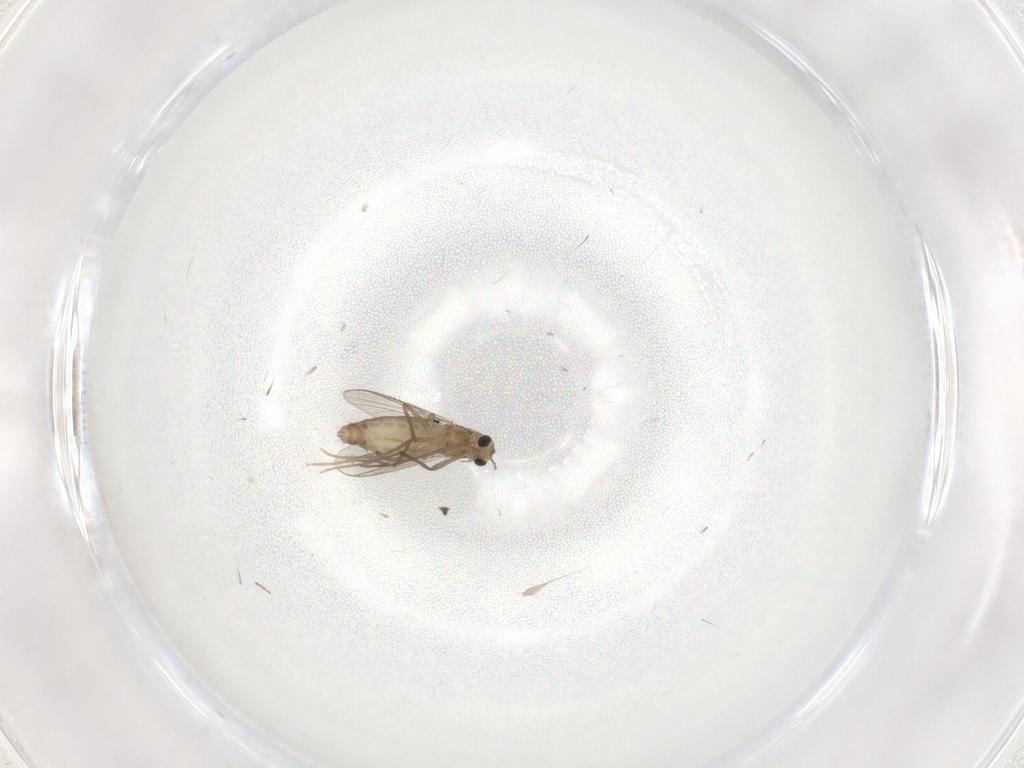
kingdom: Animalia
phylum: Arthropoda
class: Insecta
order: Diptera
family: Chironomidae
